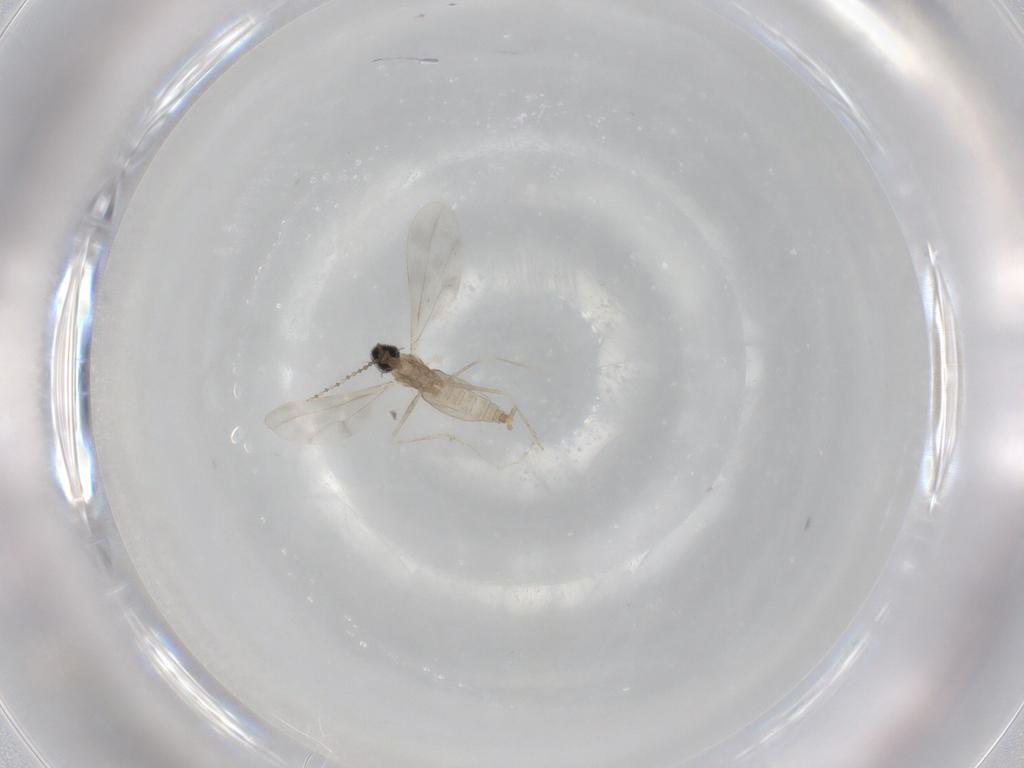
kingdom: Animalia
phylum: Arthropoda
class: Insecta
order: Diptera
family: Cecidomyiidae
